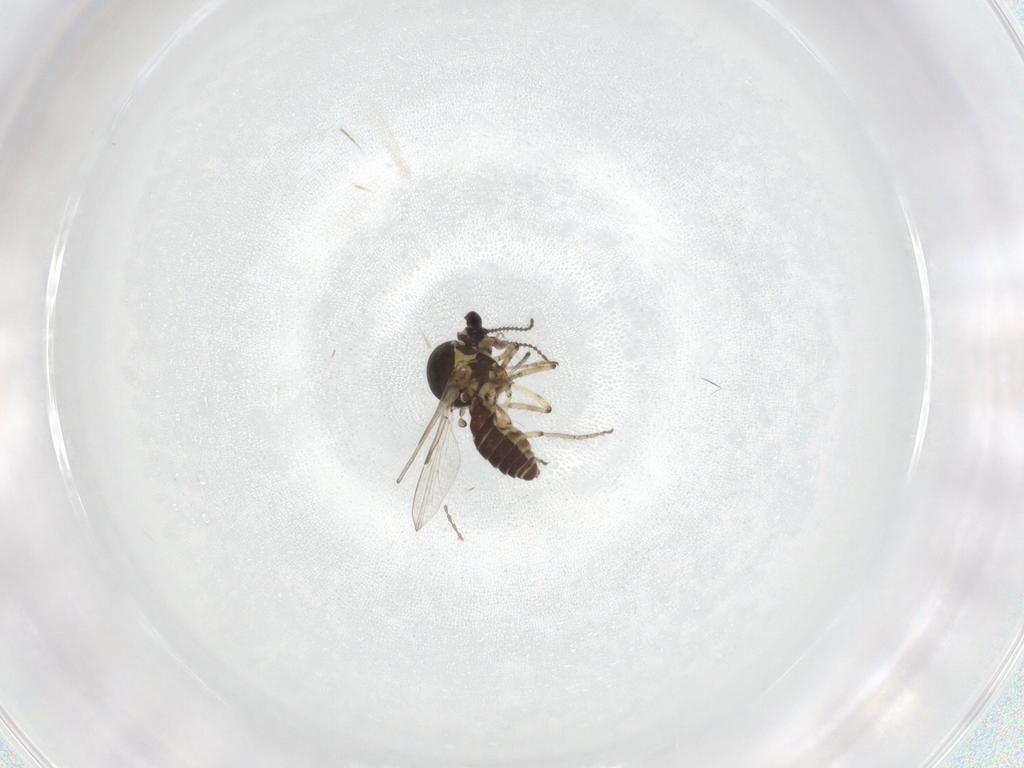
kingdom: Animalia
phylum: Arthropoda
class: Insecta
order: Diptera
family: Ceratopogonidae
